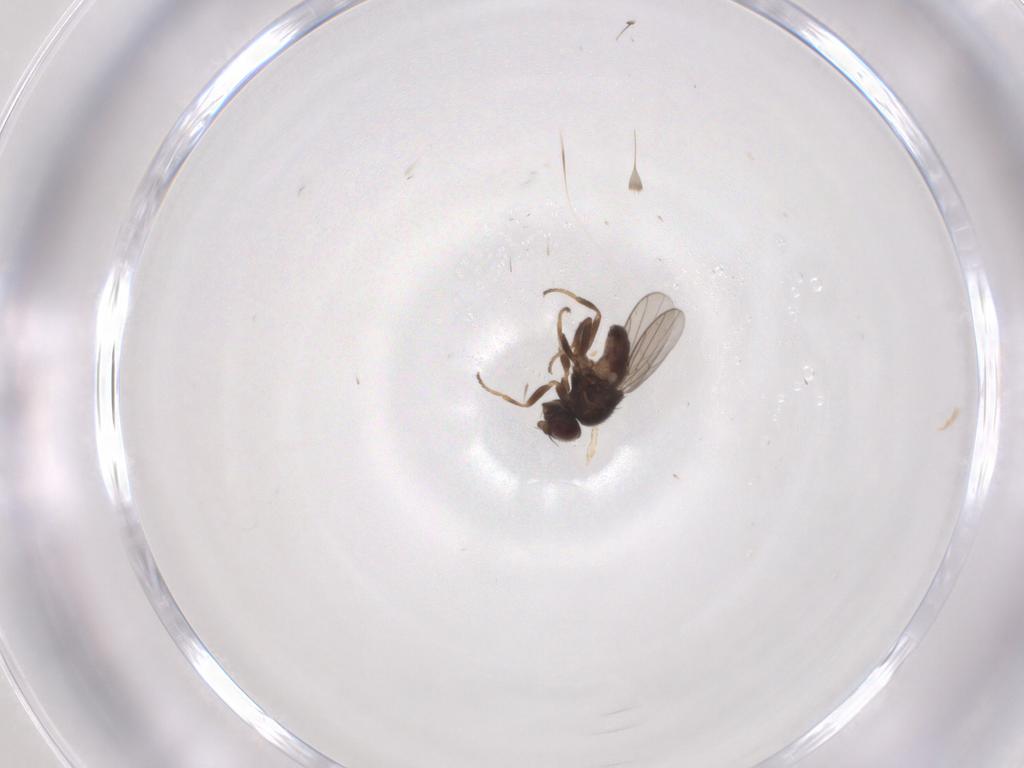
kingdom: Animalia
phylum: Arthropoda
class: Insecta
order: Diptera
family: Chloropidae
